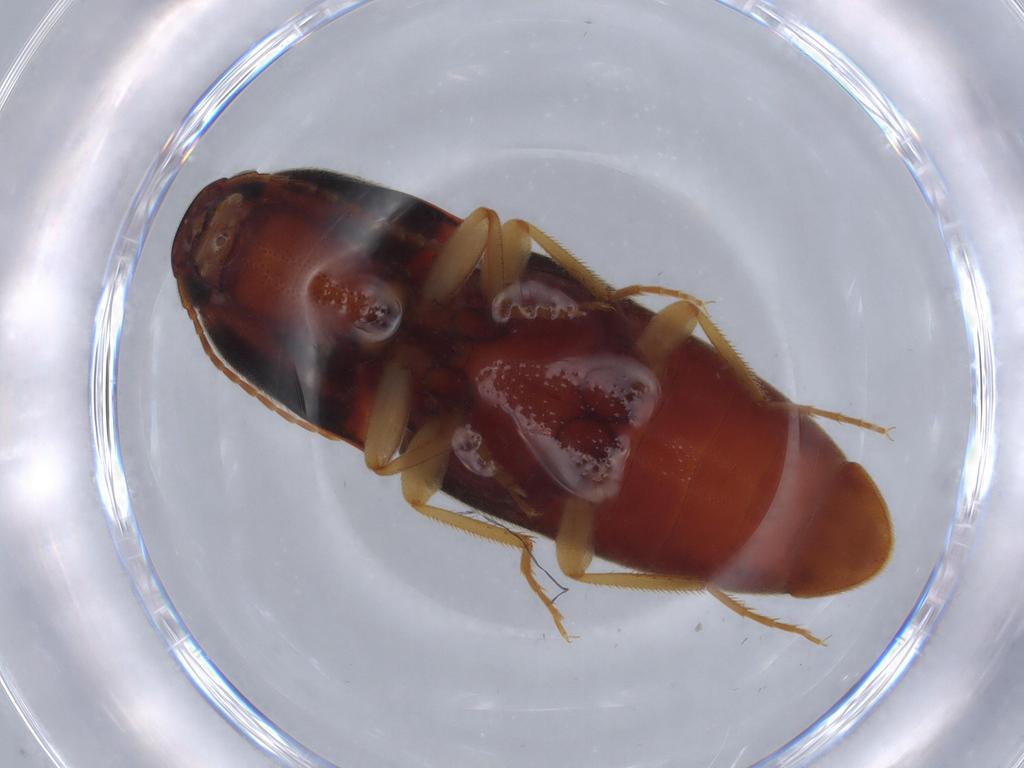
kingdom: Animalia
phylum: Arthropoda
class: Insecta
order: Coleoptera
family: Elateridae
